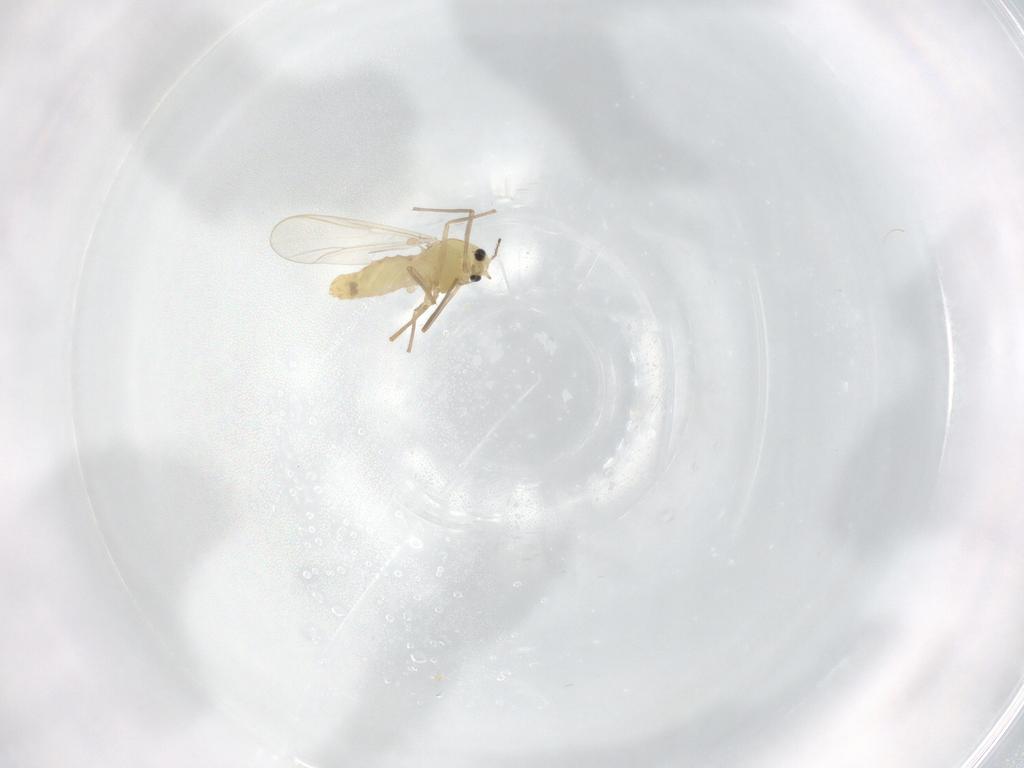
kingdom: Animalia
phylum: Arthropoda
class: Insecta
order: Diptera
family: Chironomidae
